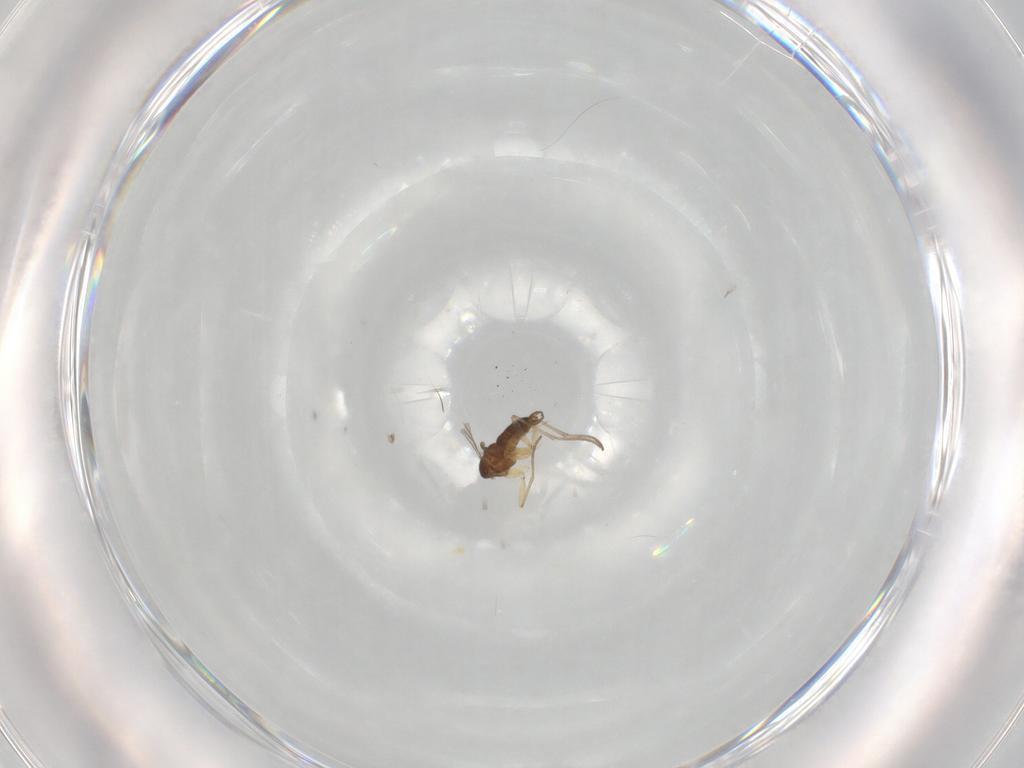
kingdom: Animalia
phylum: Arthropoda
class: Insecta
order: Diptera
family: Sciaridae
